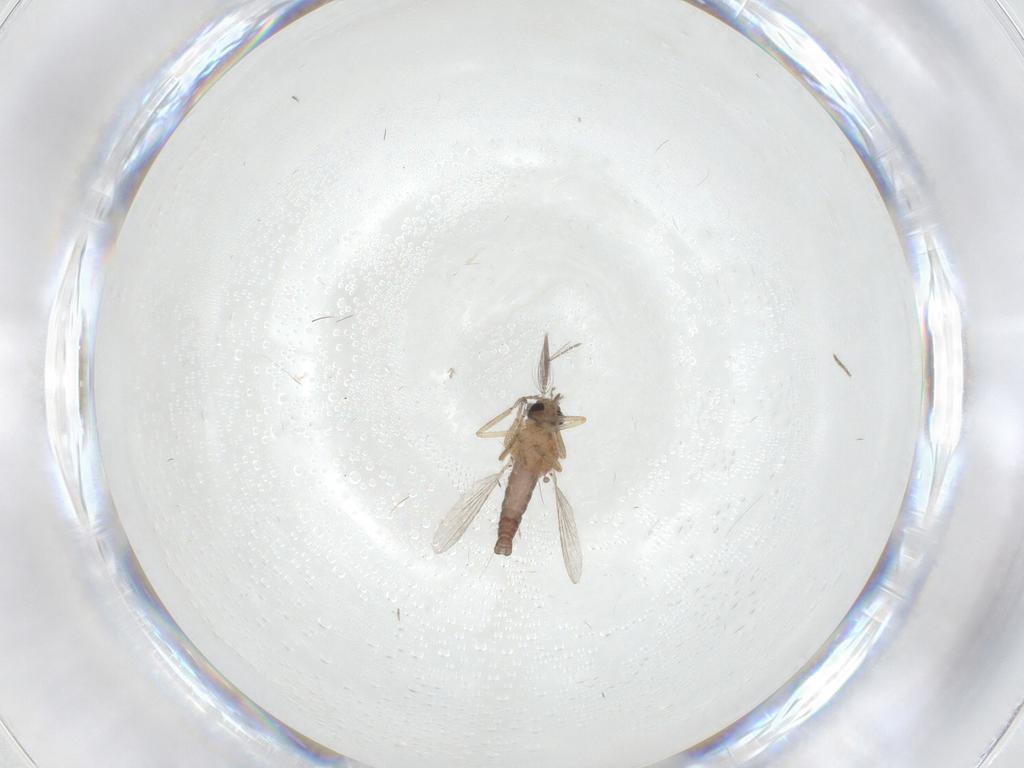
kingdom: Animalia
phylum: Arthropoda
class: Insecta
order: Diptera
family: Ceratopogonidae
